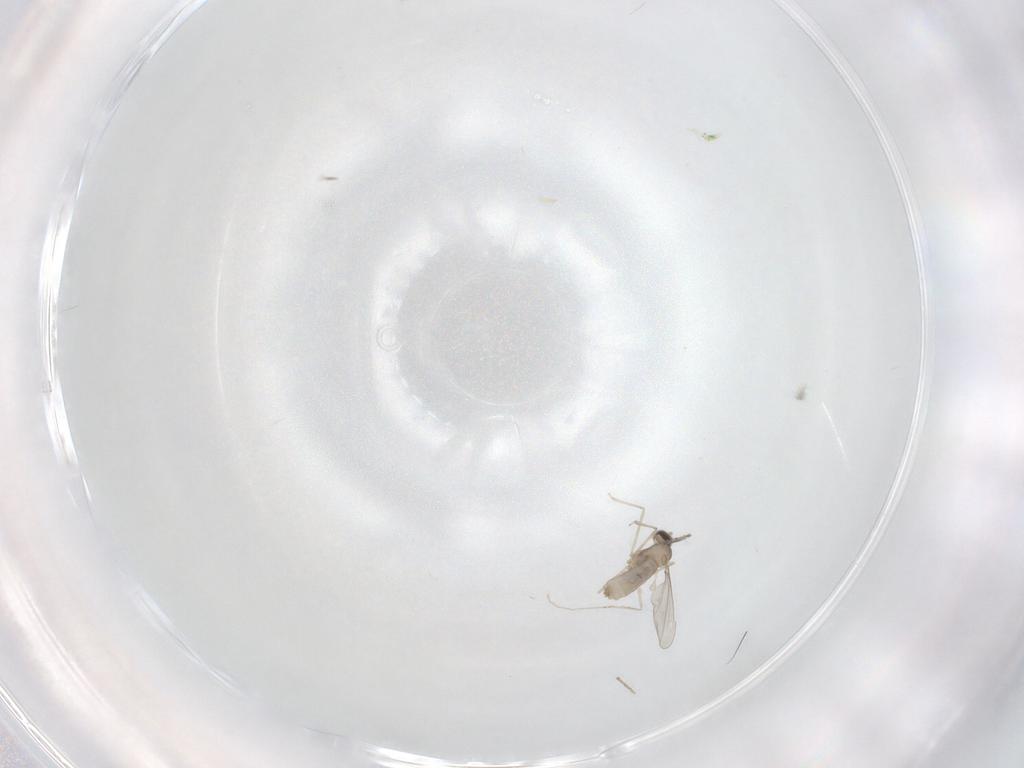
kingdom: Animalia
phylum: Arthropoda
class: Insecta
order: Diptera
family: Cecidomyiidae
